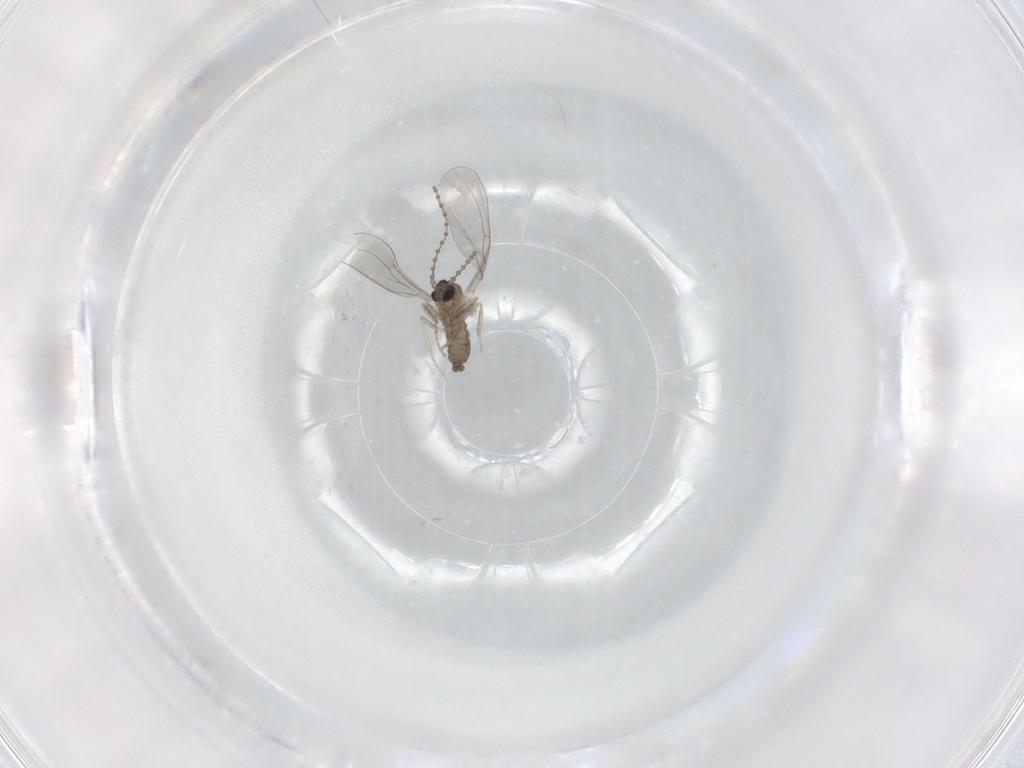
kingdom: Animalia
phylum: Arthropoda
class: Insecta
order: Diptera
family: Cecidomyiidae
